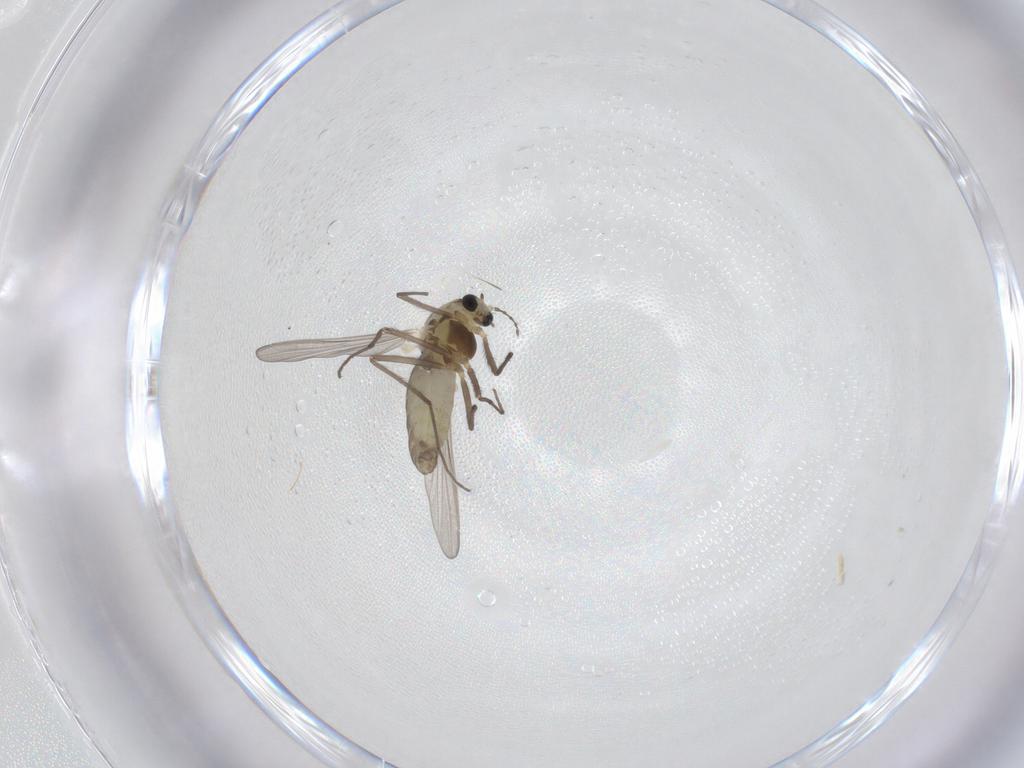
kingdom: Animalia
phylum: Arthropoda
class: Insecta
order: Diptera
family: Chironomidae
